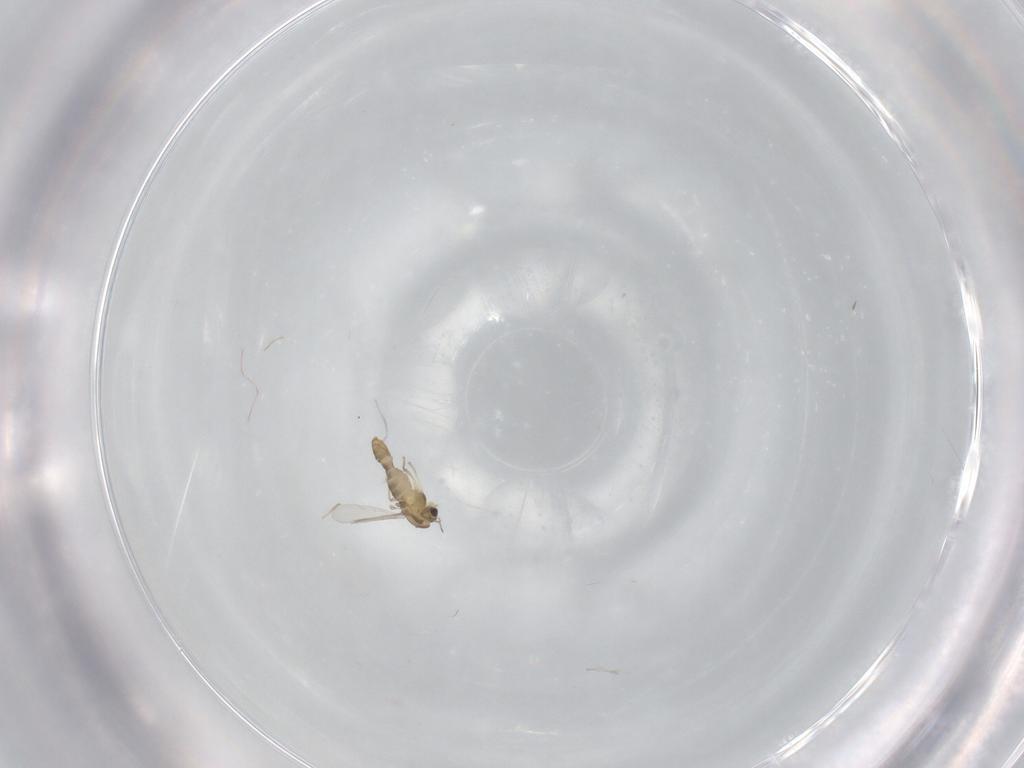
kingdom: Animalia
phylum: Arthropoda
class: Insecta
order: Diptera
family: Chironomidae
